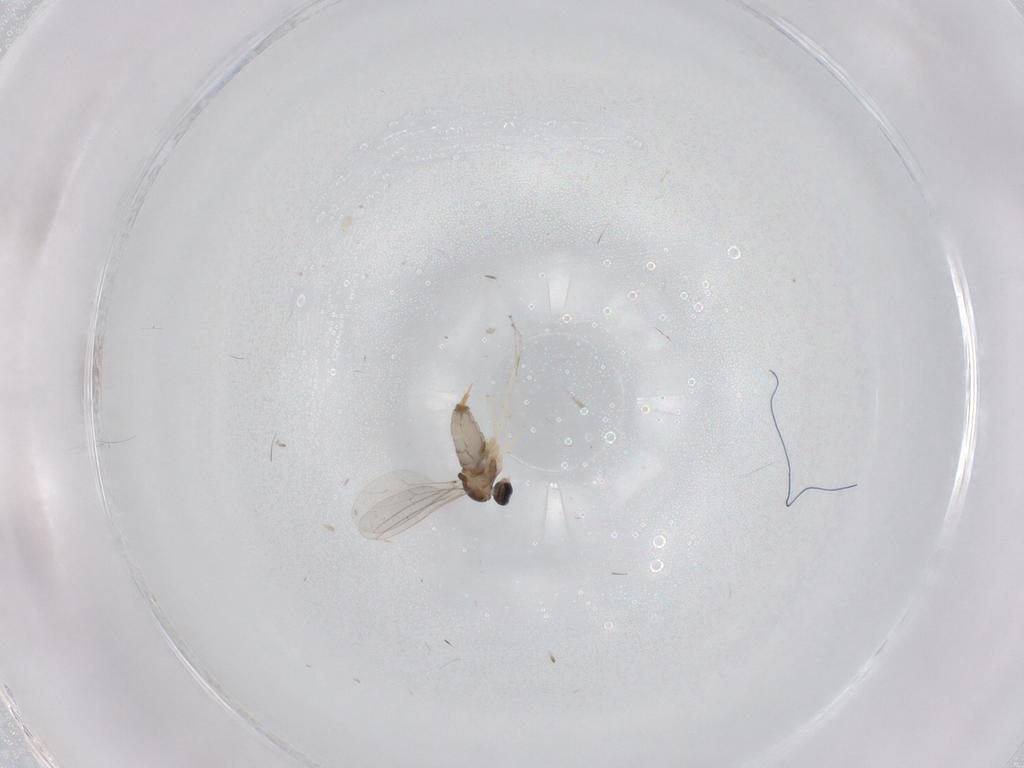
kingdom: Animalia
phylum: Arthropoda
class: Insecta
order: Diptera
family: Cecidomyiidae
